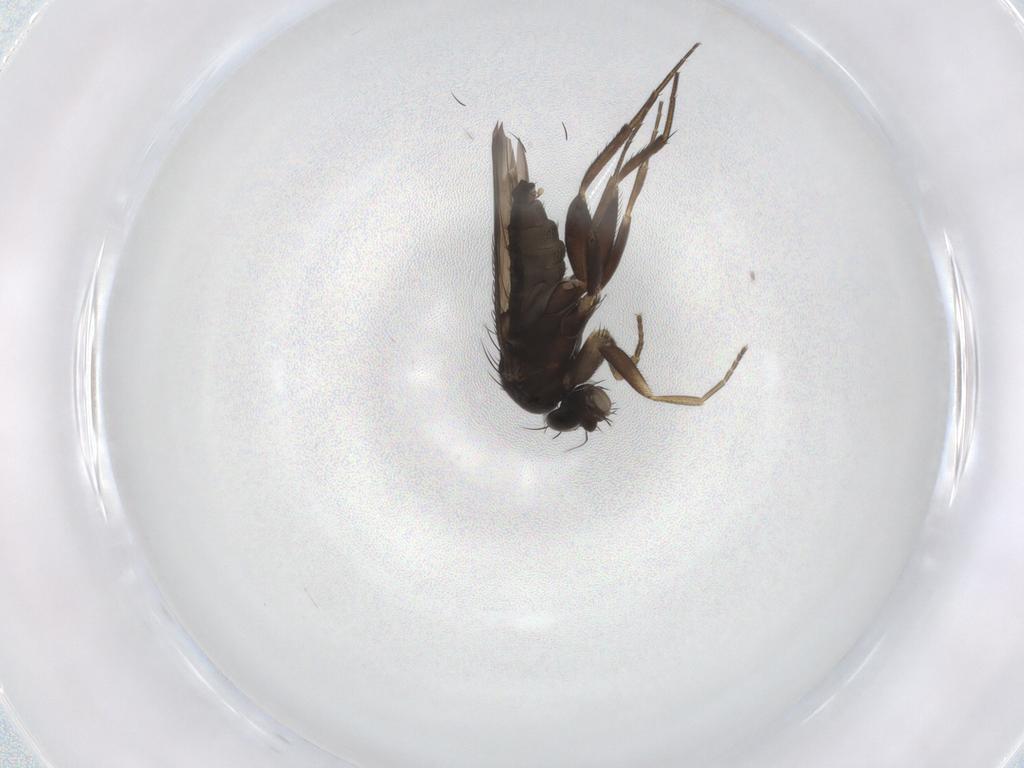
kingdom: Animalia
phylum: Arthropoda
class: Insecta
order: Diptera
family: Phoridae
